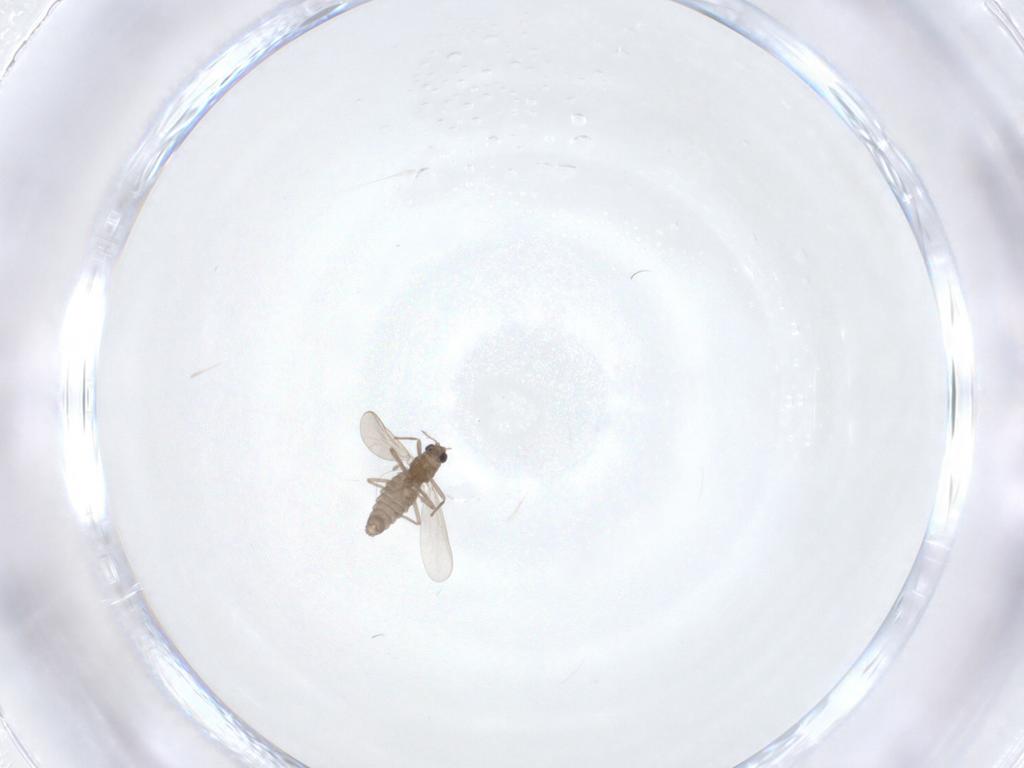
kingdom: Animalia
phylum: Arthropoda
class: Insecta
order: Diptera
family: Chironomidae
